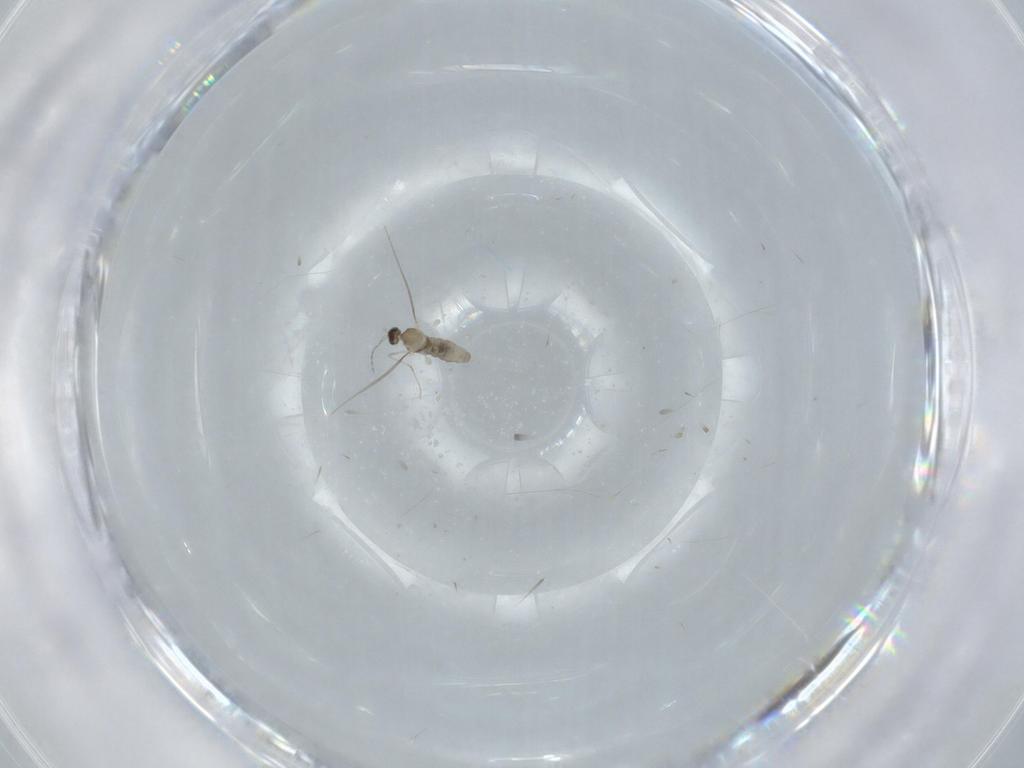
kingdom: Animalia
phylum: Arthropoda
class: Insecta
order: Diptera
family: Cecidomyiidae
